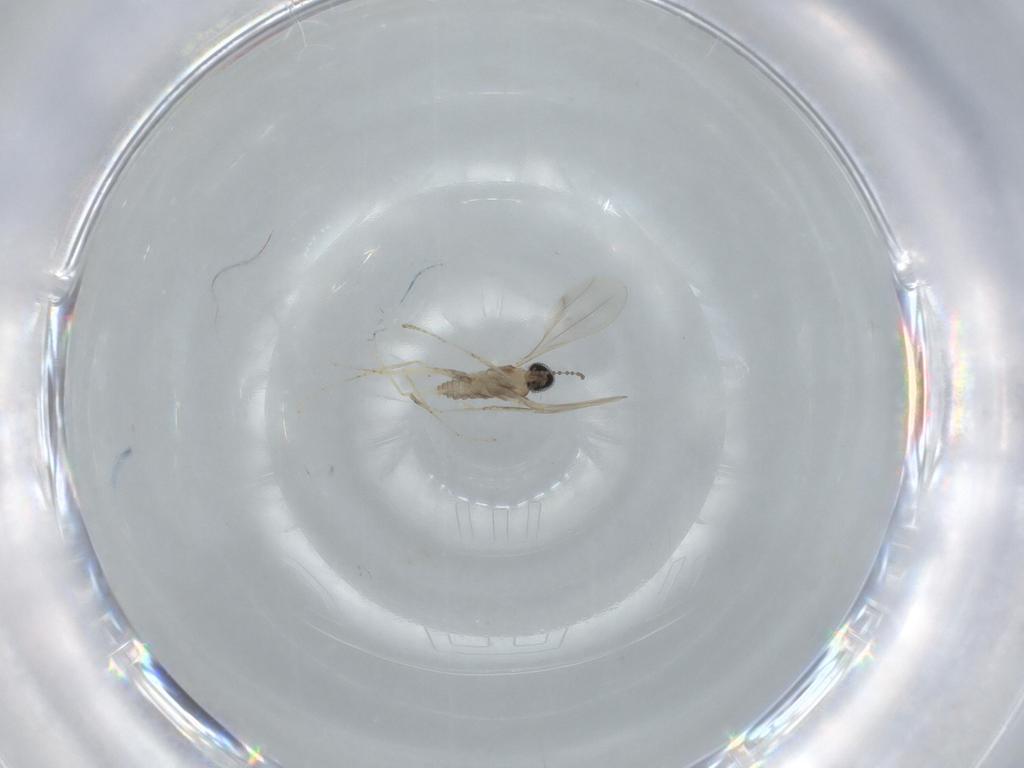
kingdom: Animalia
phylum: Arthropoda
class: Insecta
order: Diptera
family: Cecidomyiidae
